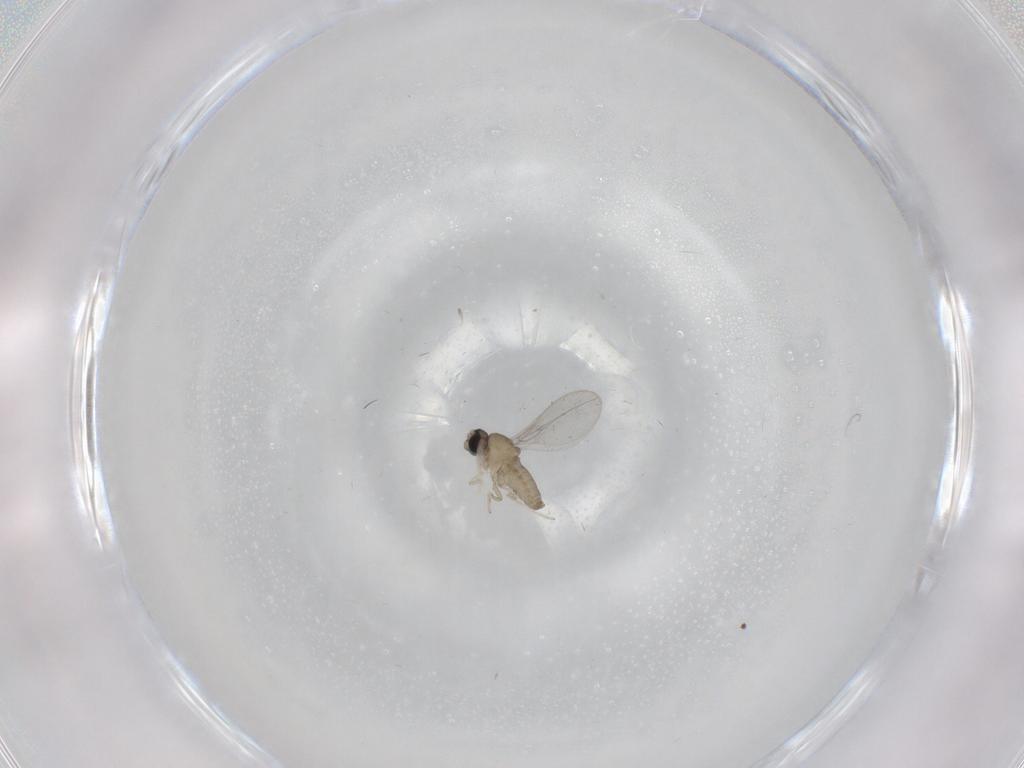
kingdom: Animalia
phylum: Arthropoda
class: Insecta
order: Diptera
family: Cecidomyiidae
